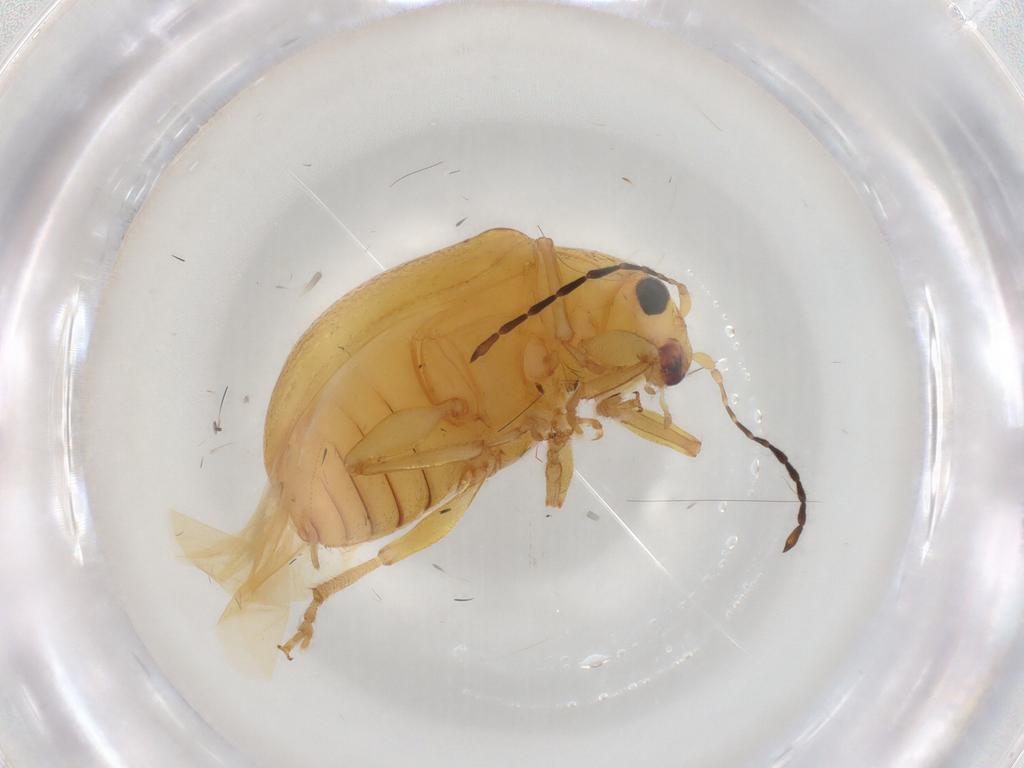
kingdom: Animalia
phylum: Arthropoda
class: Insecta
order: Coleoptera
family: Chrysomelidae
